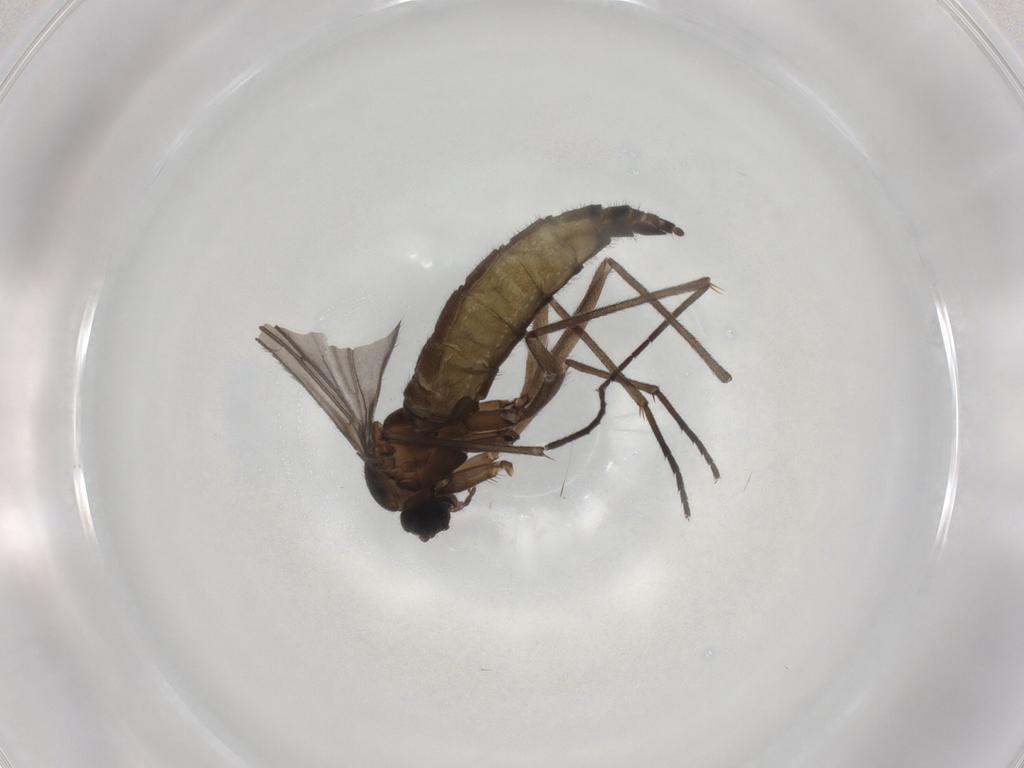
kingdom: Animalia
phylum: Arthropoda
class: Insecta
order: Diptera
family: Sciaridae
